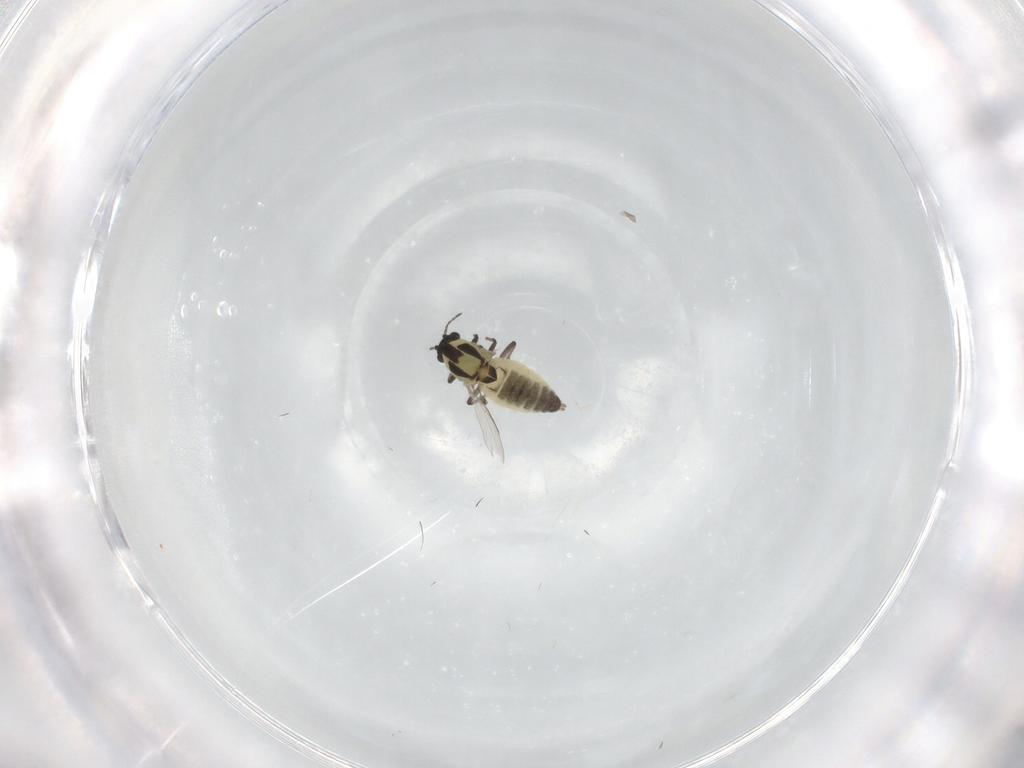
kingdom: Animalia
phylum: Arthropoda
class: Insecta
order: Diptera
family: Chironomidae
